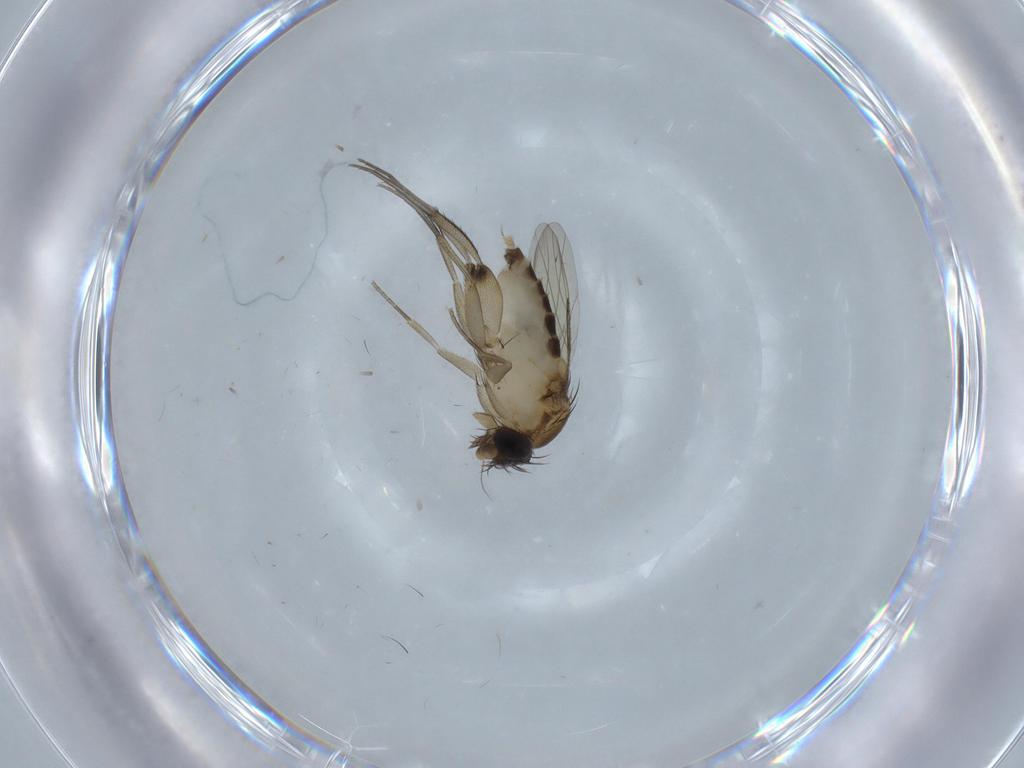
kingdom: Animalia
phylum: Arthropoda
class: Insecta
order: Diptera
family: Phoridae
